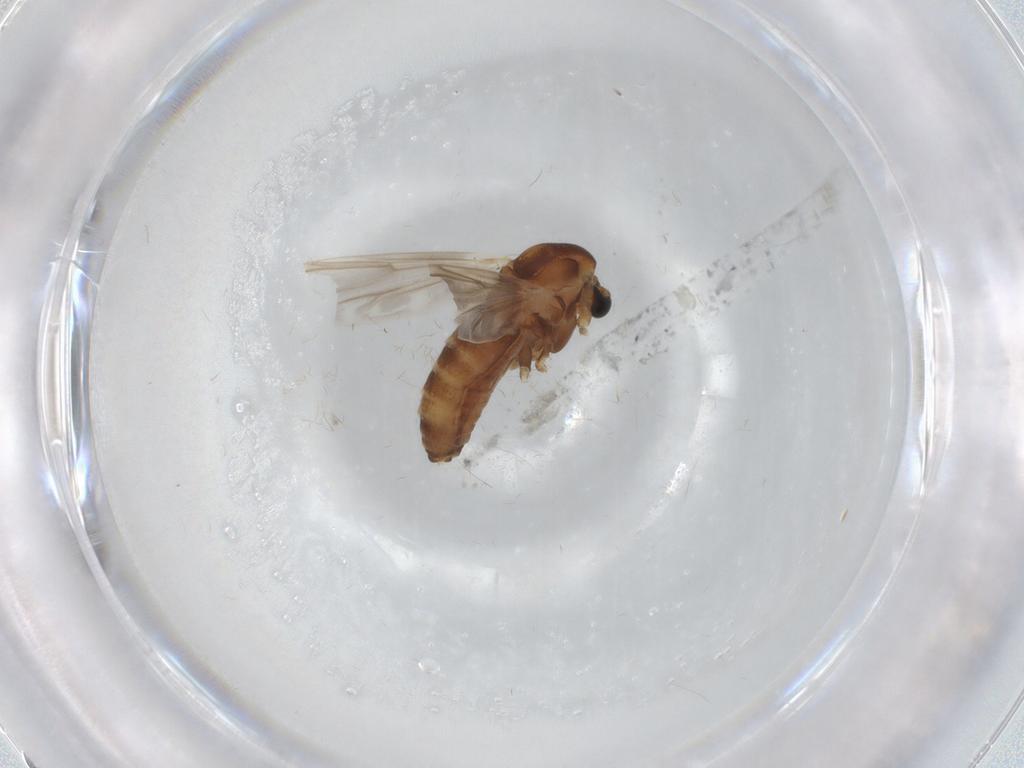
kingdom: Animalia
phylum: Arthropoda
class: Insecta
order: Diptera
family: Chironomidae
